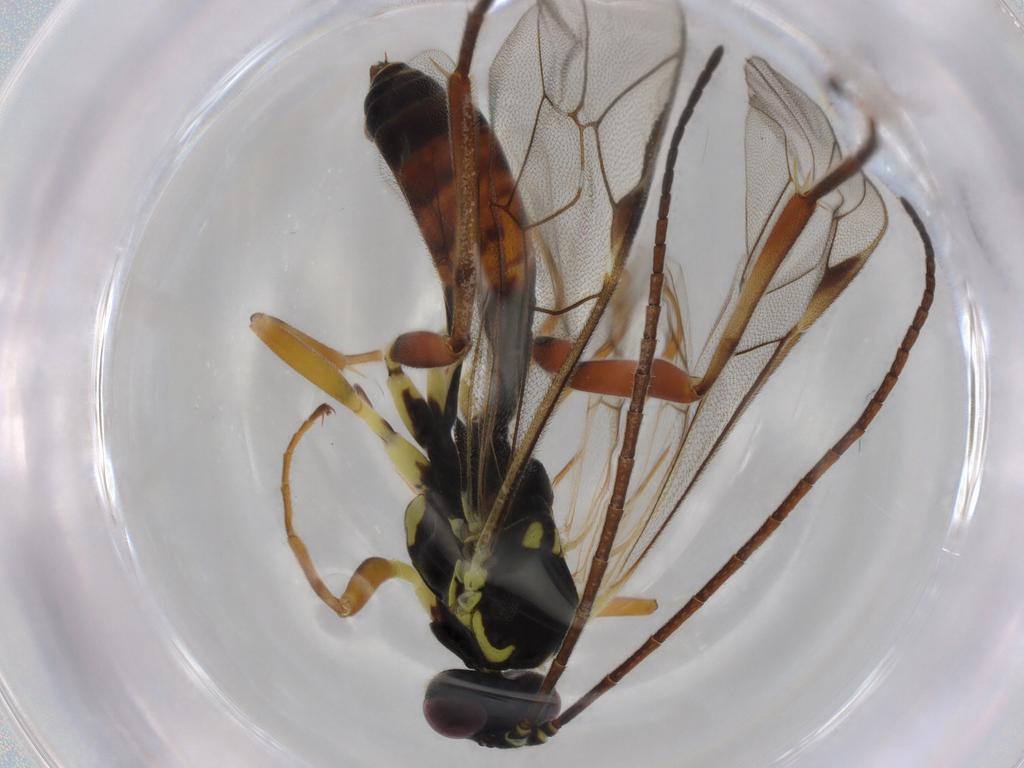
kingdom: Animalia
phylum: Arthropoda
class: Insecta
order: Hymenoptera
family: Ichneumonidae
